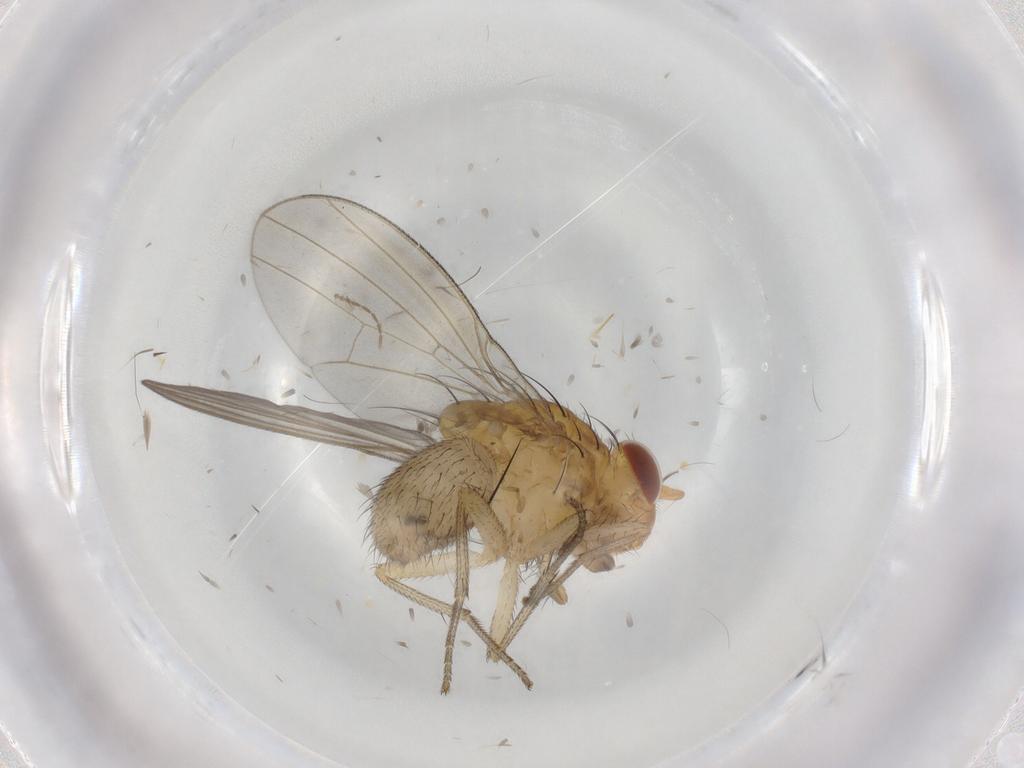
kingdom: Animalia
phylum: Arthropoda
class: Insecta
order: Diptera
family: Lauxaniidae
